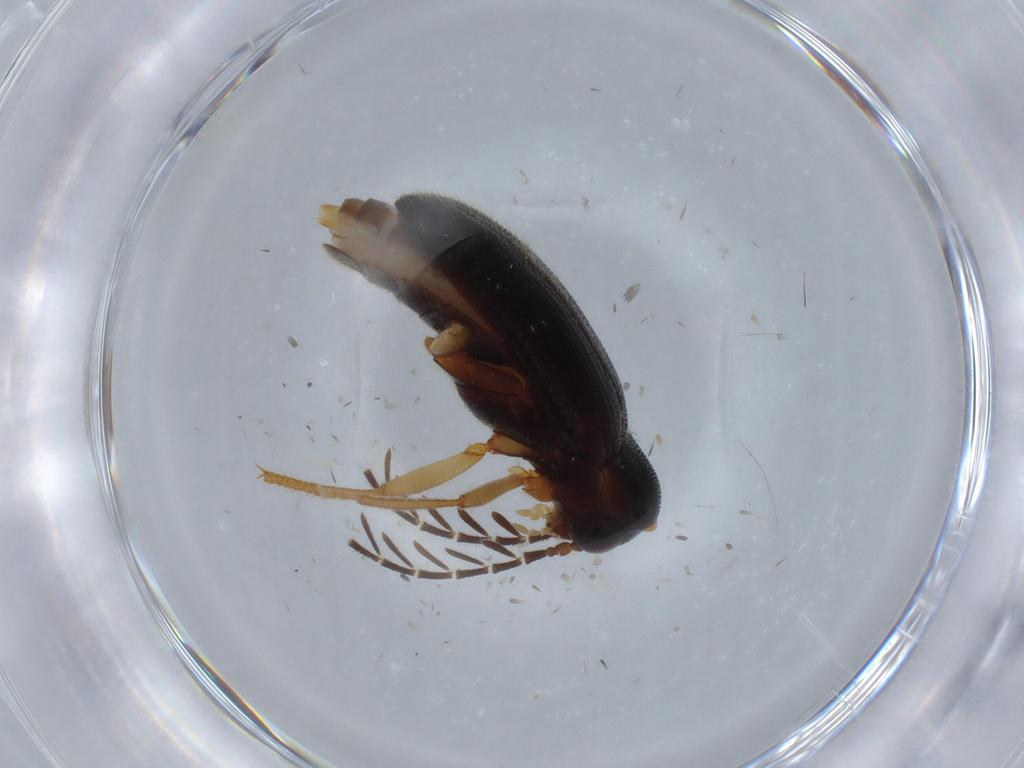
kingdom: Animalia
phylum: Arthropoda
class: Insecta
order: Coleoptera
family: Ptilodactylidae
